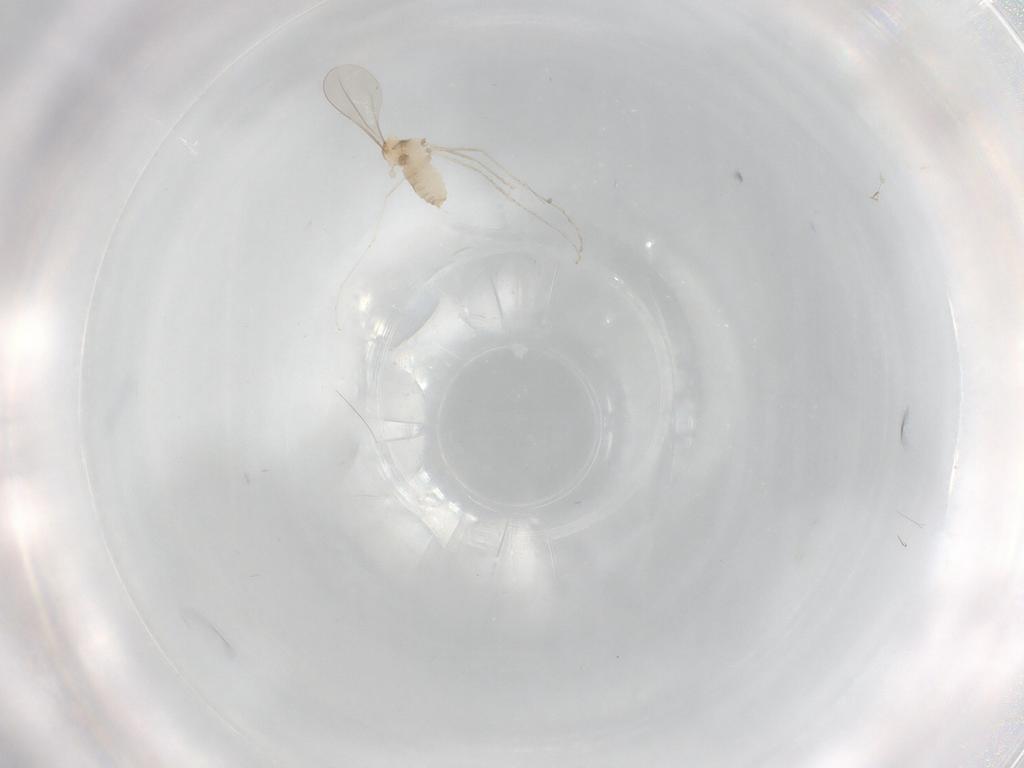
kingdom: Animalia
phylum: Arthropoda
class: Insecta
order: Diptera
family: Cecidomyiidae
